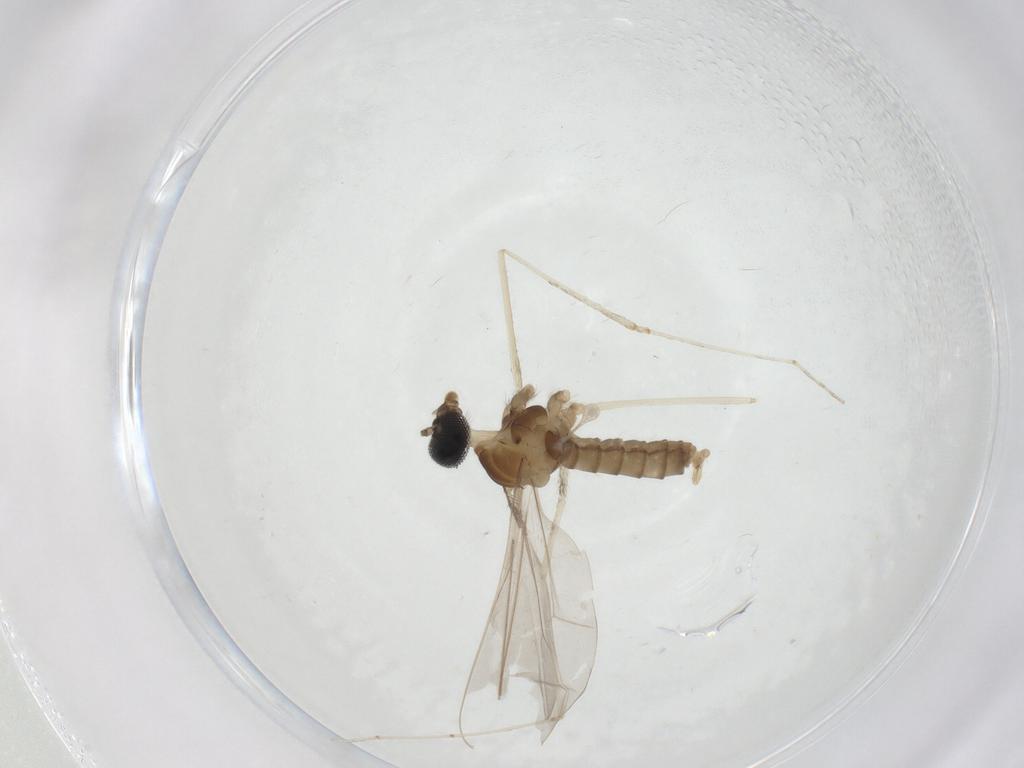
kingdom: Animalia
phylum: Arthropoda
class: Insecta
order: Diptera
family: Cecidomyiidae
